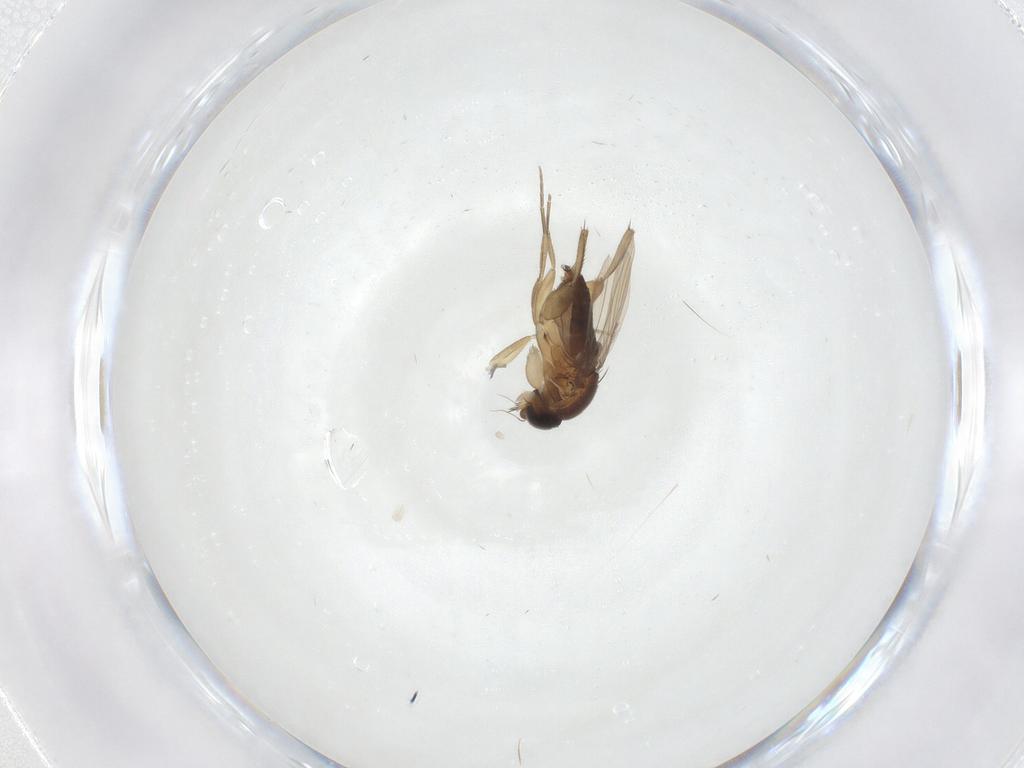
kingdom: Animalia
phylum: Arthropoda
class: Insecta
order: Diptera
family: Phoridae
